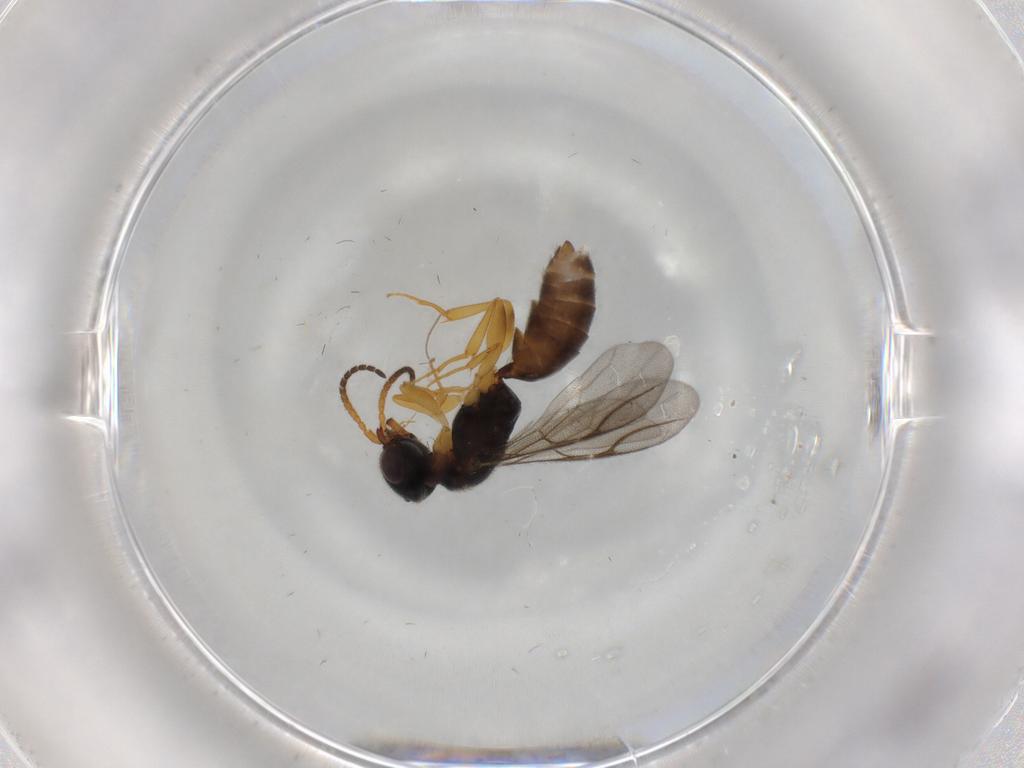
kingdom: Animalia
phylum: Arthropoda
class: Insecta
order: Hymenoptera
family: Bethylidae
